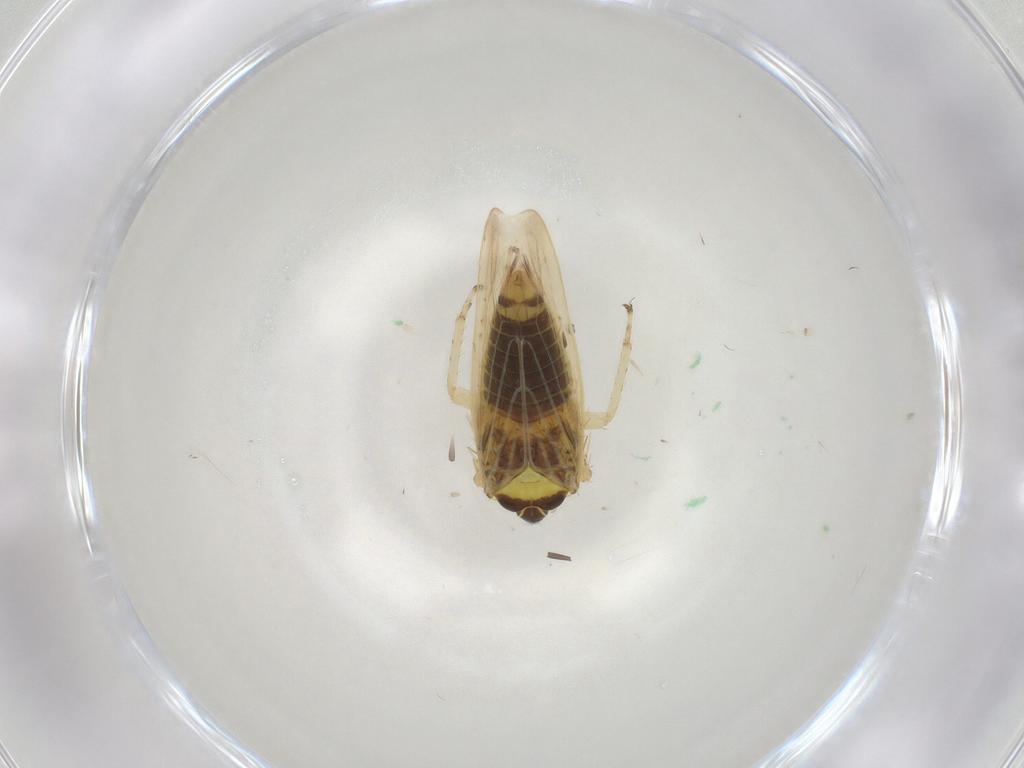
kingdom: Animalia
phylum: Arthropoda
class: Insecta
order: Hemiptera
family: Cicadellidae
